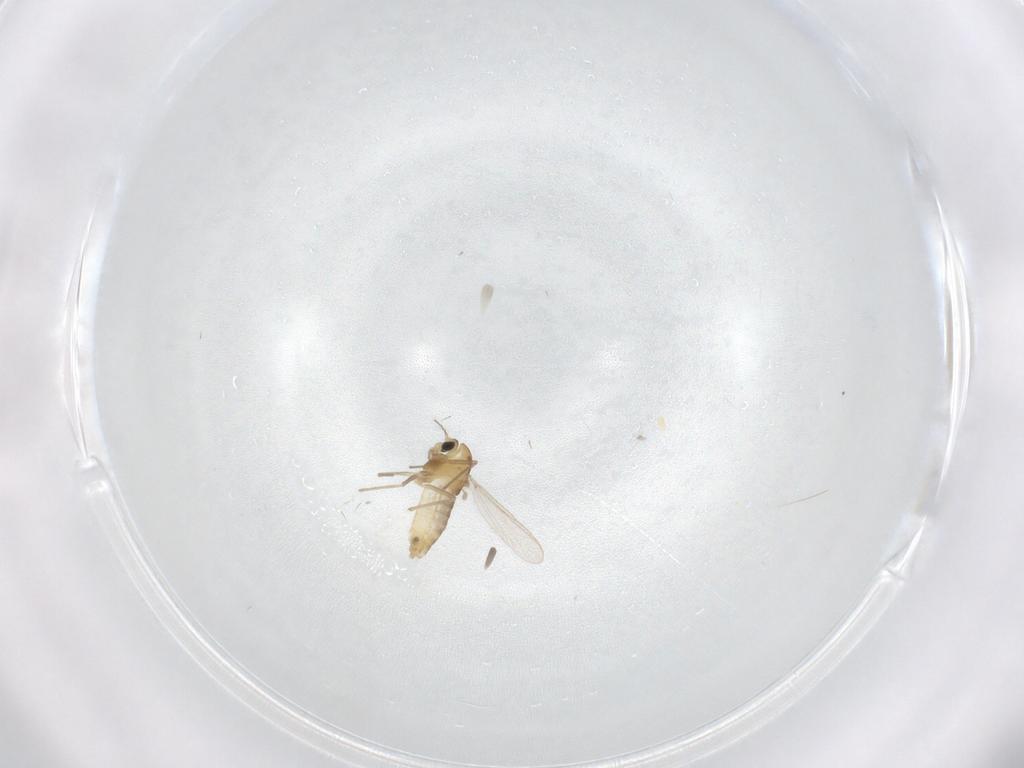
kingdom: Animalia
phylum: Arthropoda
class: Insecta
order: Diptera
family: Chironomidae
